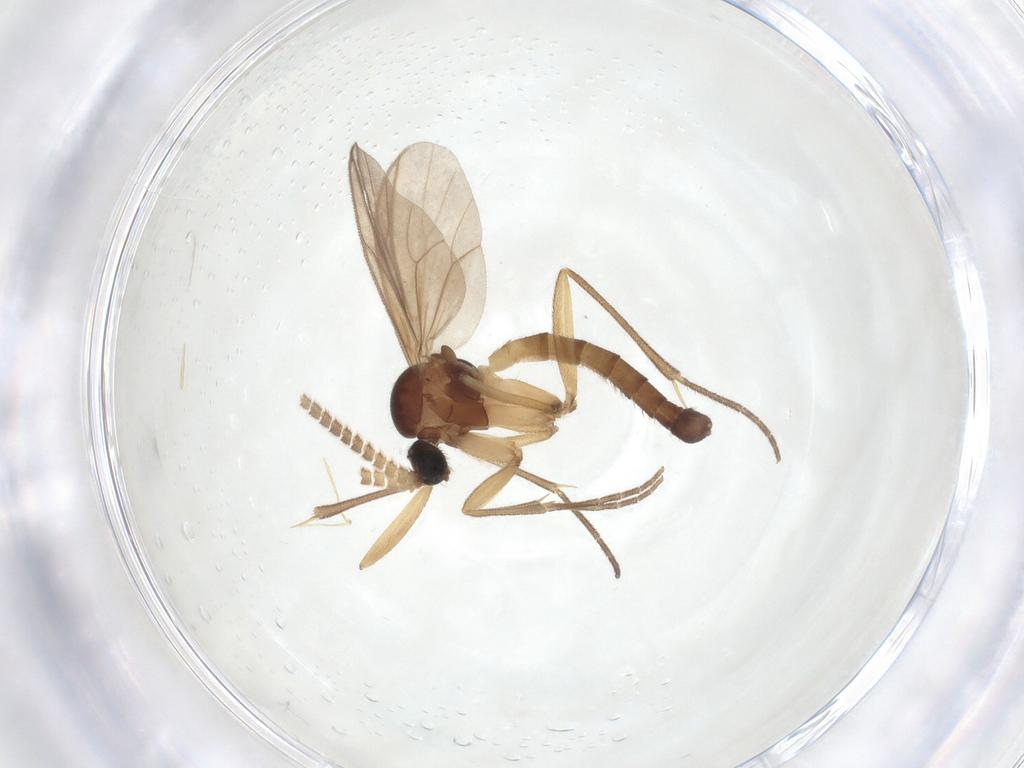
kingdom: Animalia
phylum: Arthropoda
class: Insecta
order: Diptera
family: Mycetophilidae
